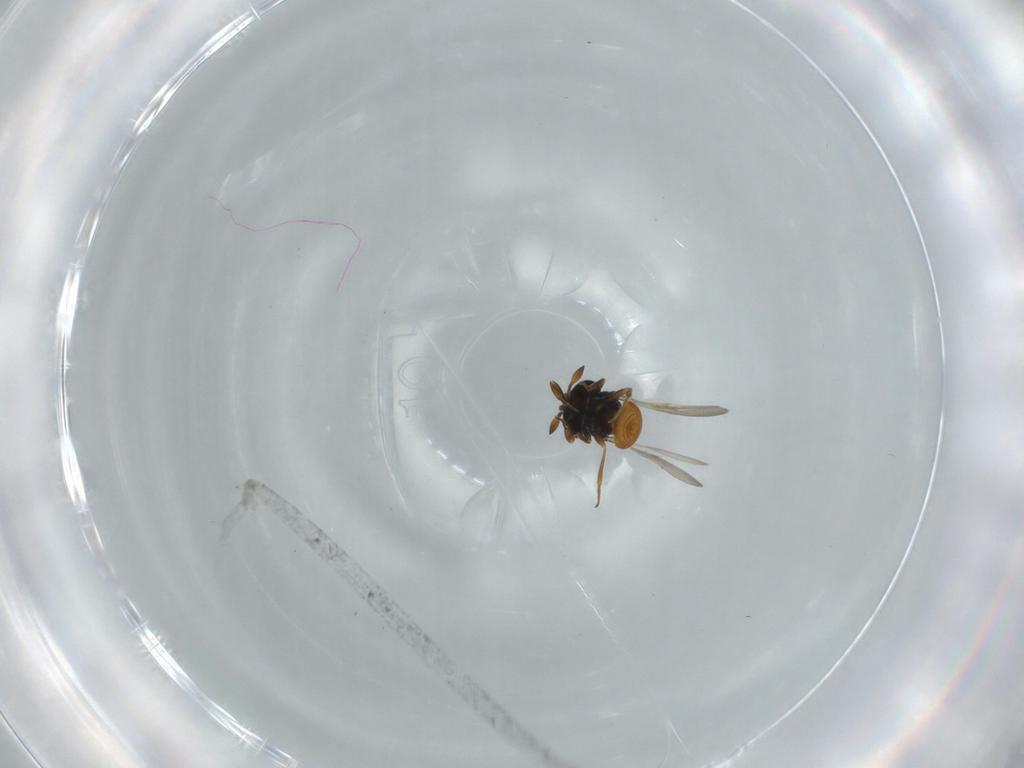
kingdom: Animalia
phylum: Arthropoda
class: Insecta
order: Hymenoptera
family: Scelionidae
